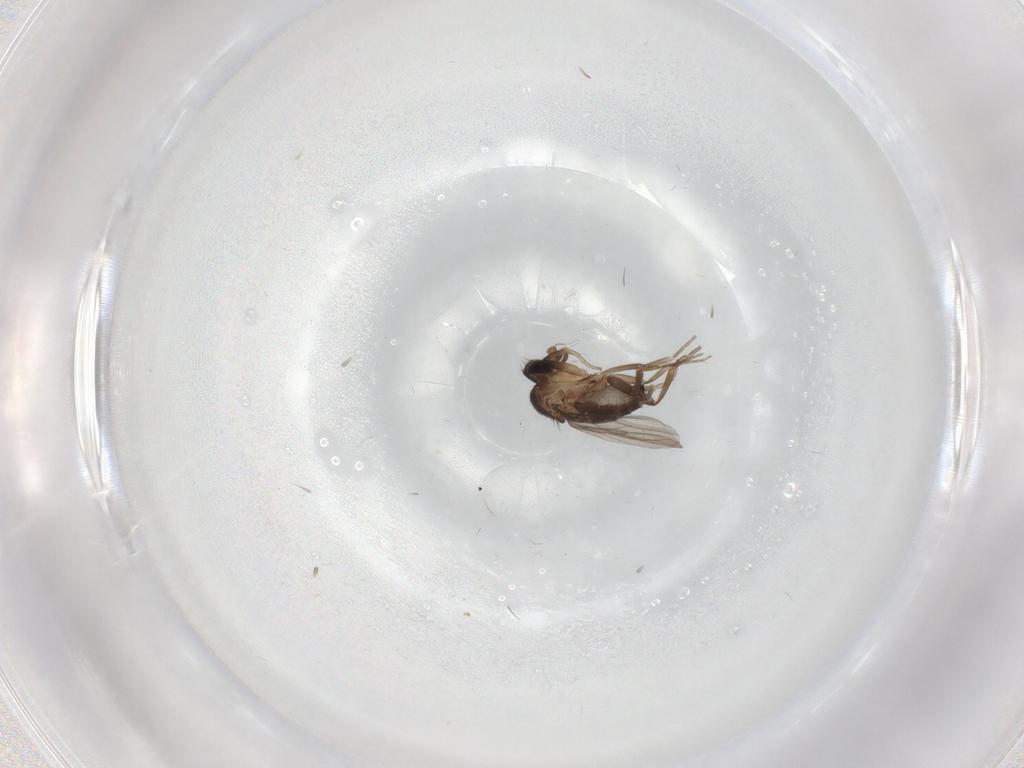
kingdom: Animalia
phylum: Arthropoda
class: Insecta
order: Diptera
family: Phoridae
